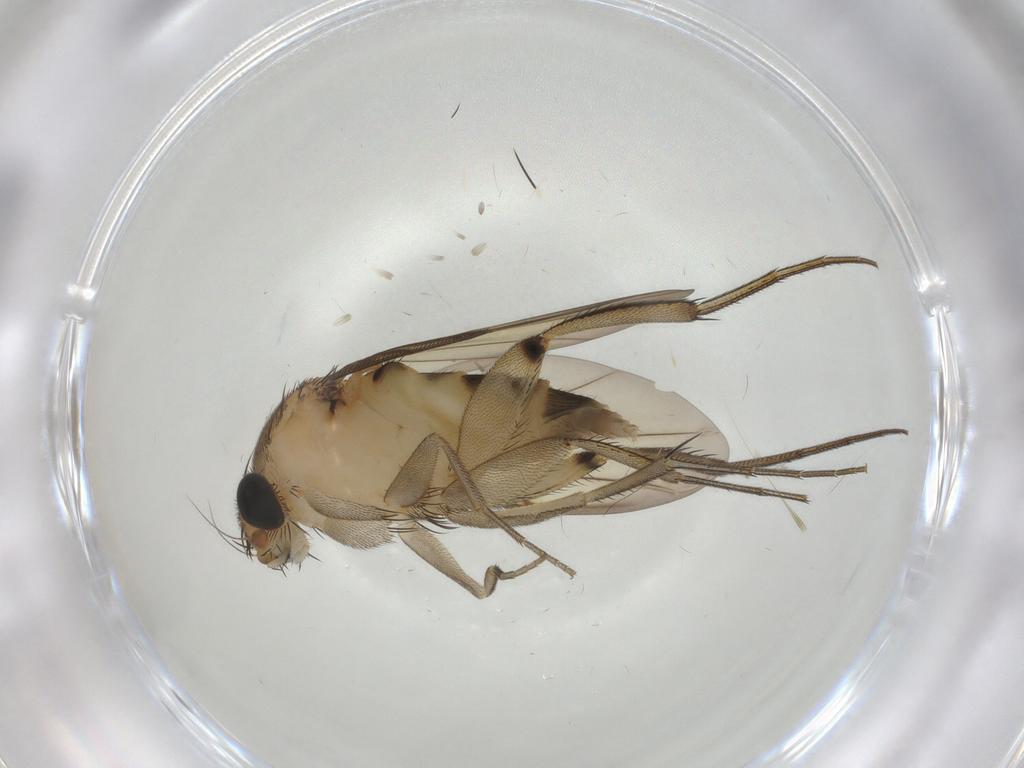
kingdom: Animalia
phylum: Arthropoda
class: Insecta
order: Diptera
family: Phoridae
